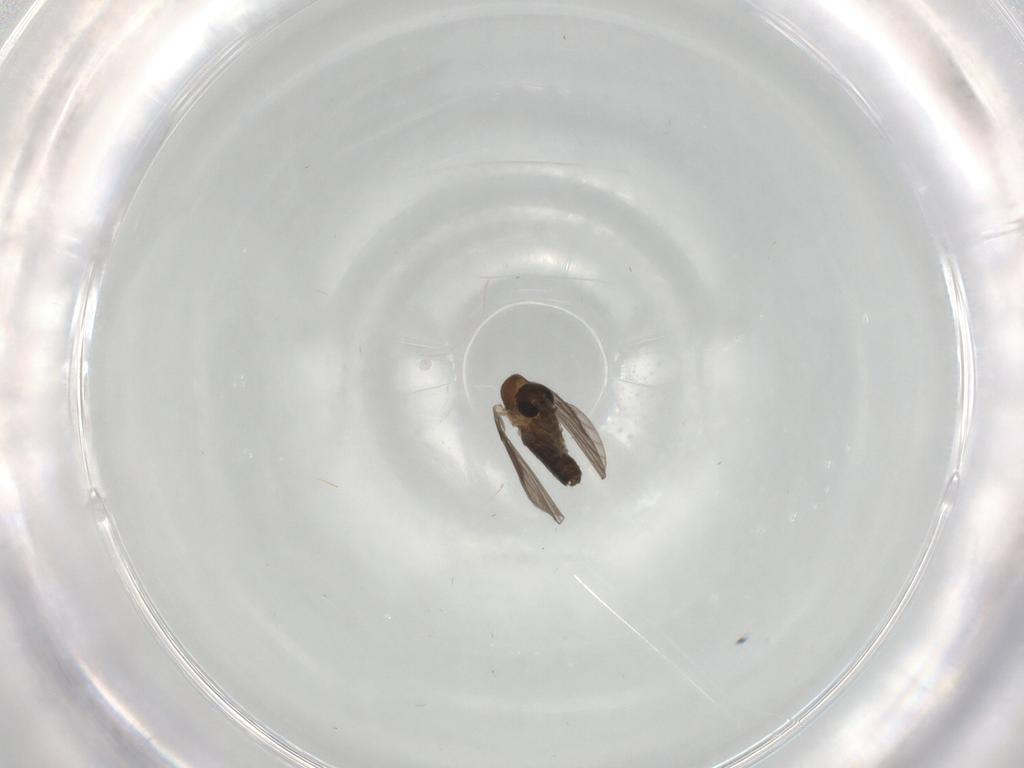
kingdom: Animalia
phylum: Arthropoda
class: Insecta
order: Diptera
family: Psychodidae
